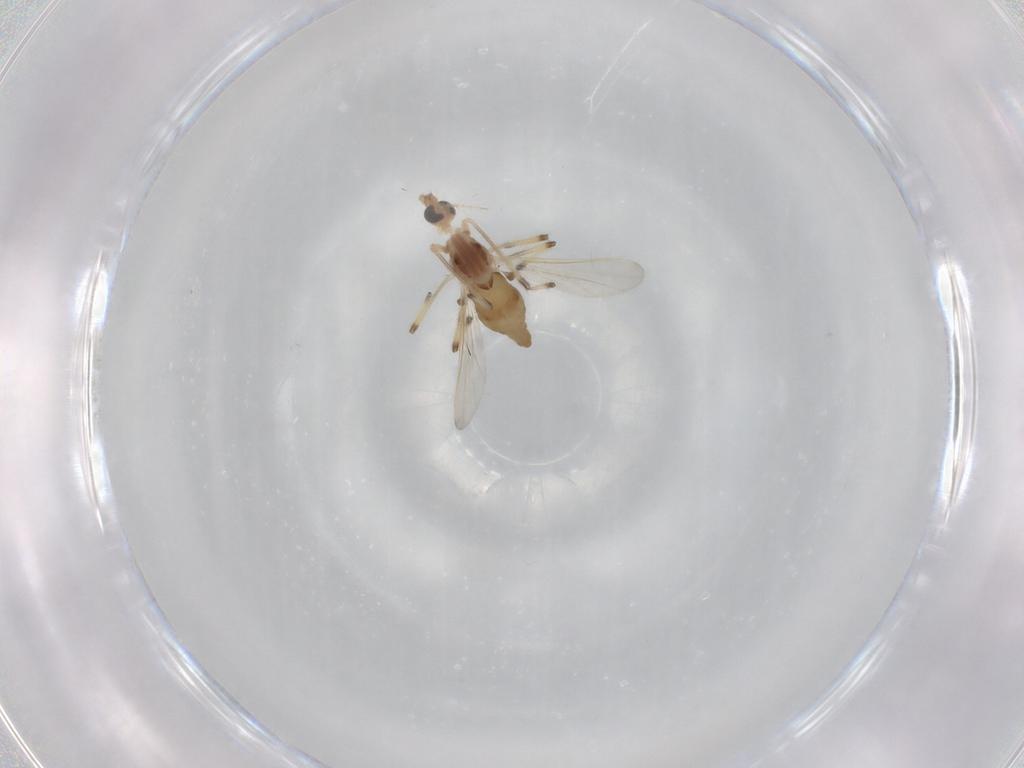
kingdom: Animalia
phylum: Arthropoda
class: Insecta
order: Diptera
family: Chironomidae
